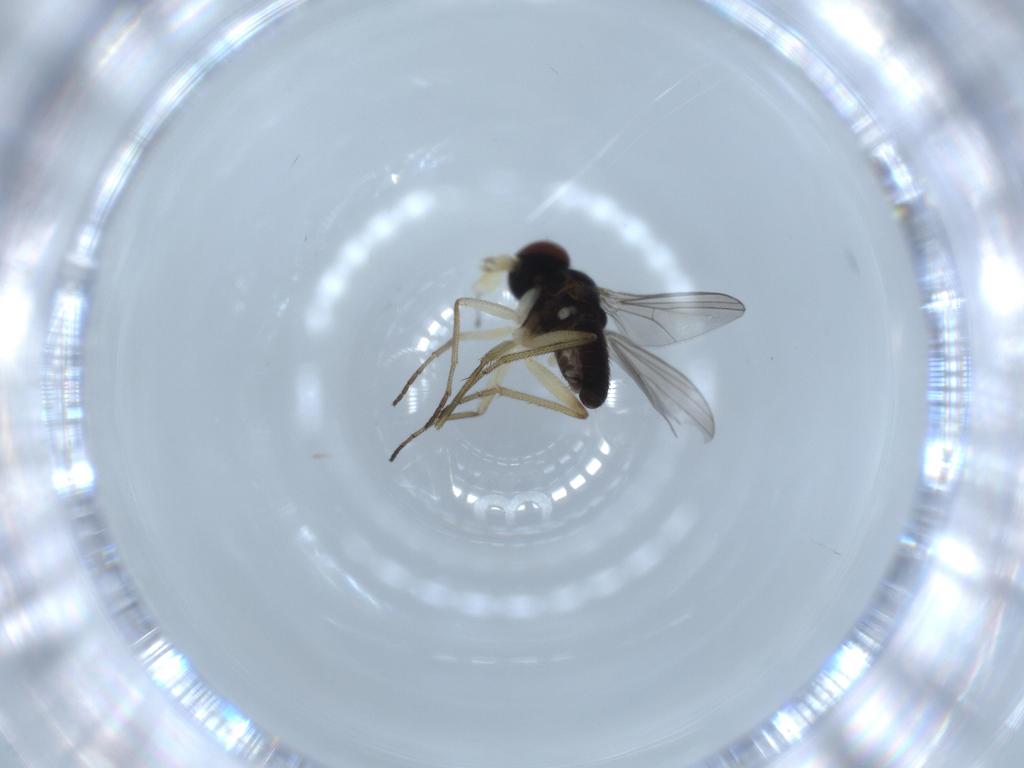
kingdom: Animalia
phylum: Arthropoda
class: Insecta
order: Diptera
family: Dolichopodidae
